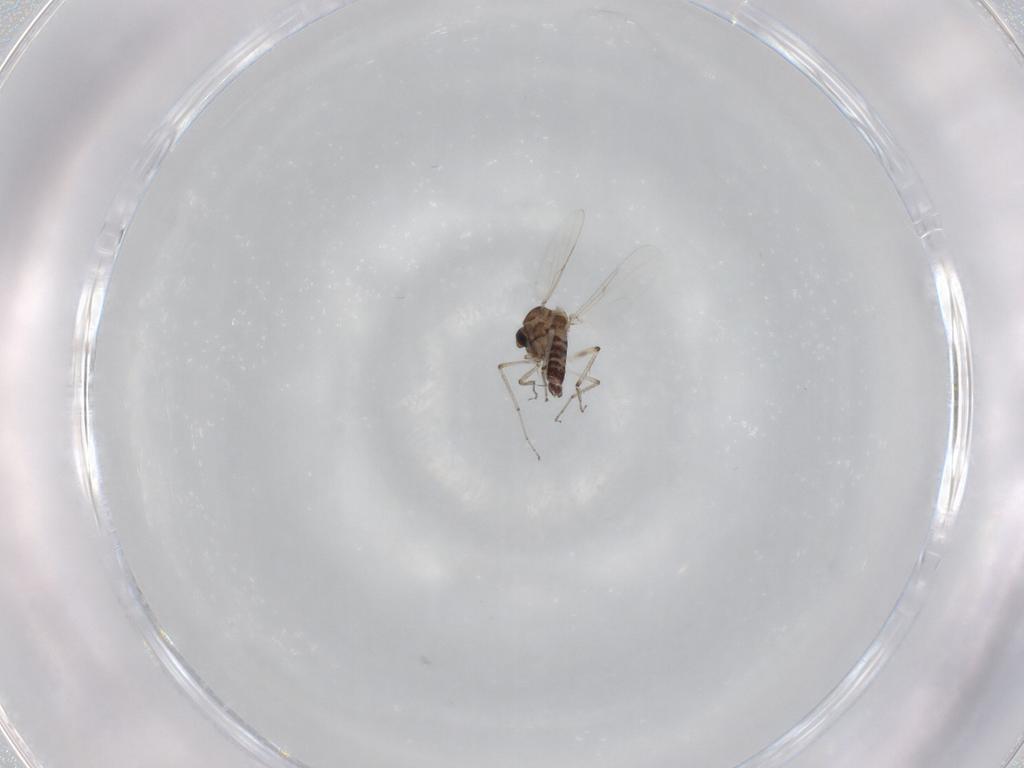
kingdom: Animalia
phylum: Arthropoda
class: Insecta
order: Diptera
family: Ceratopogonidae
